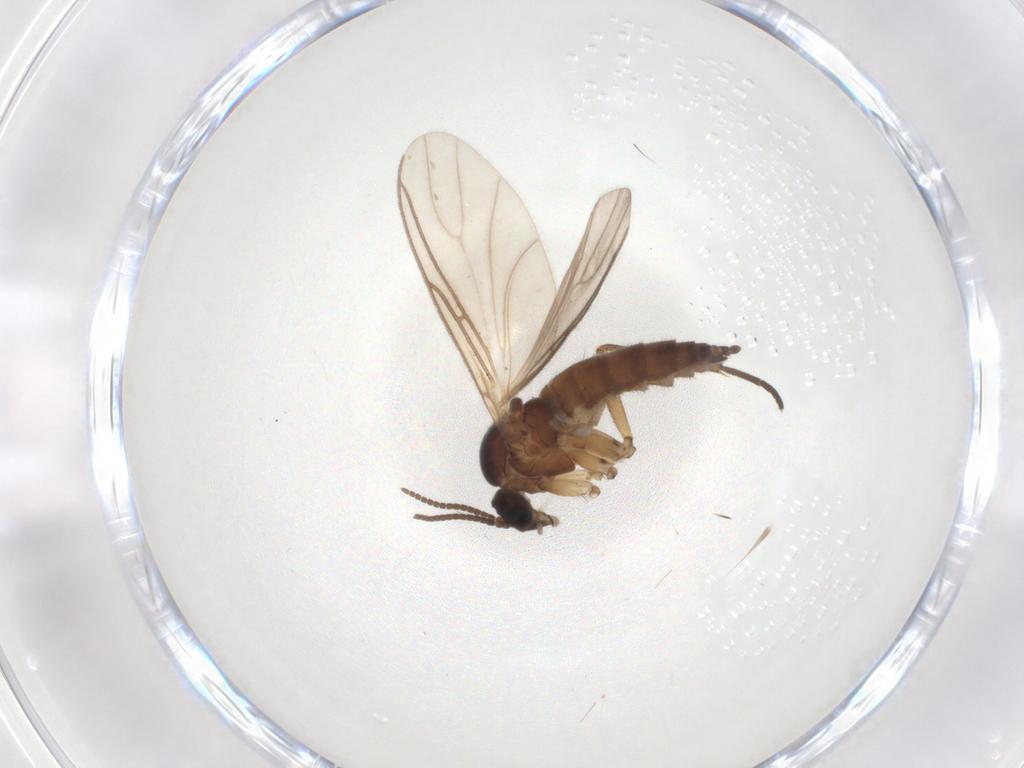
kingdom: Animalia
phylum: Arthropoda
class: Insecta
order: Diptera
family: Sciaridae
